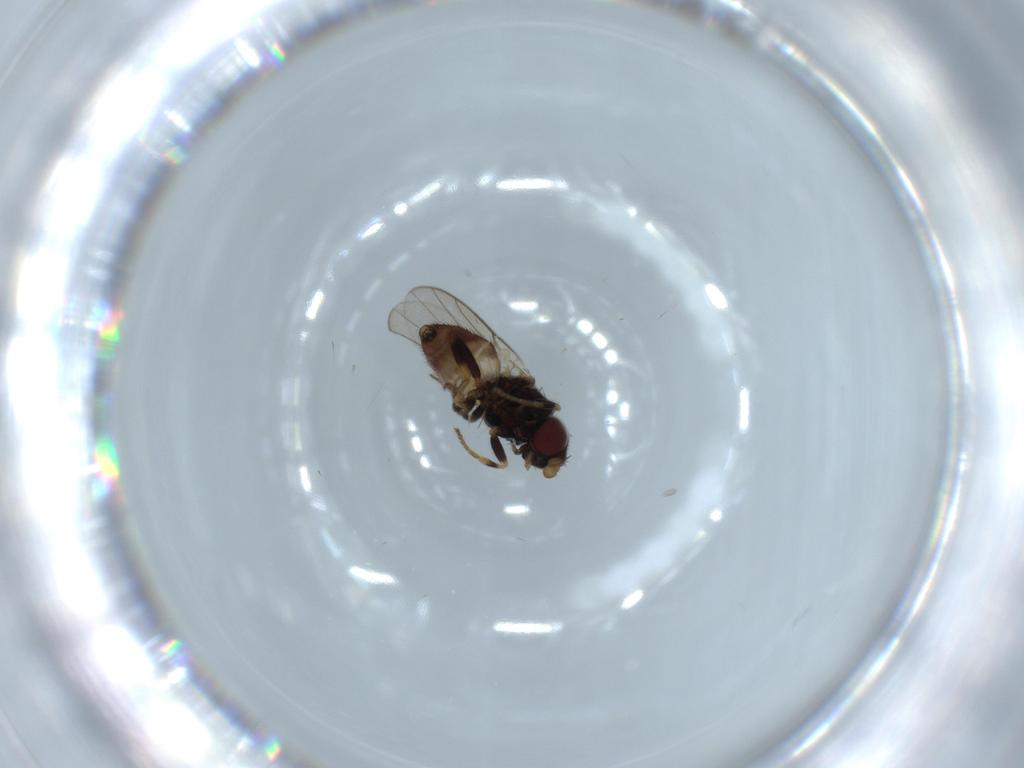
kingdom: Animalia
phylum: Arthropoda
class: Insecta
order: Diptera
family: Chloropidae
